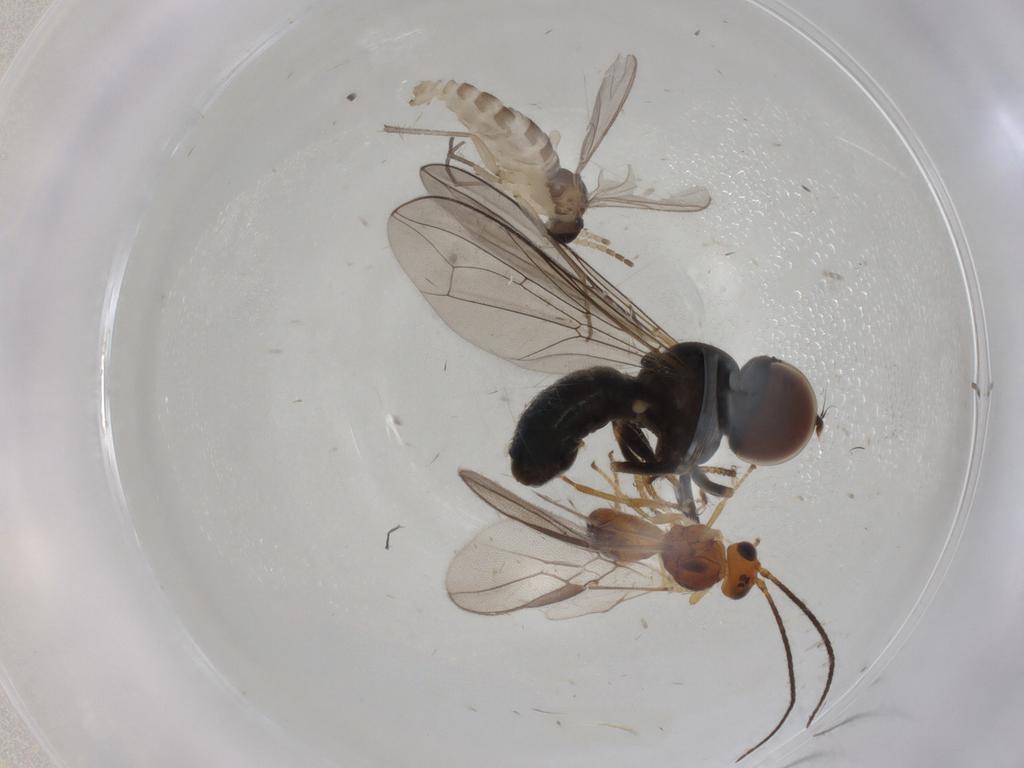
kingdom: Animalia
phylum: Arthropoda
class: Insecta
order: Diptera
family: Pipunculidae
